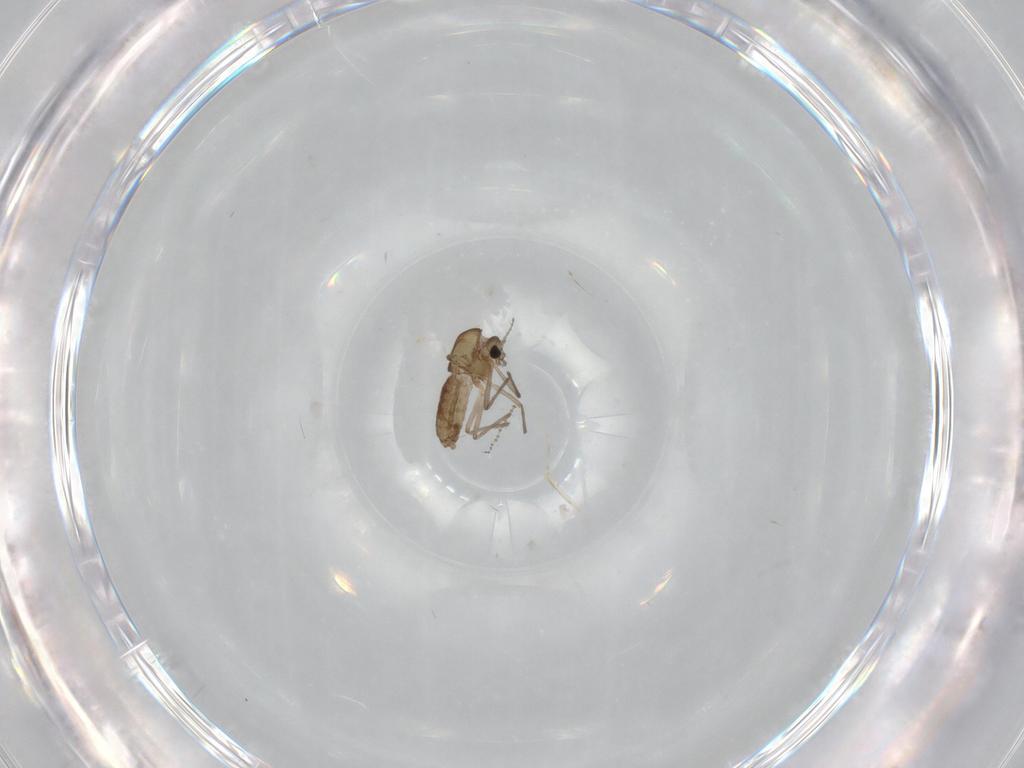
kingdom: Animalia
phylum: Arthropoda
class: Insecta
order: Diptera
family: Chironomidae
